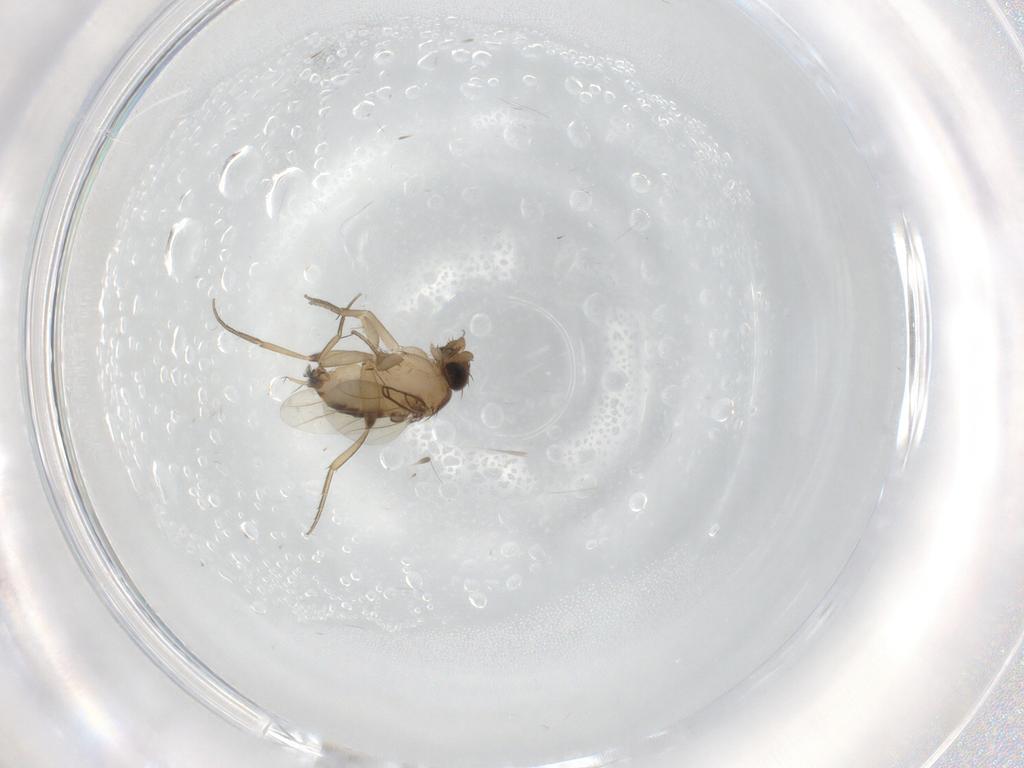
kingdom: Animalia
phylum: Arthropoda
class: Insecta
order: Diptera
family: Phoridae
